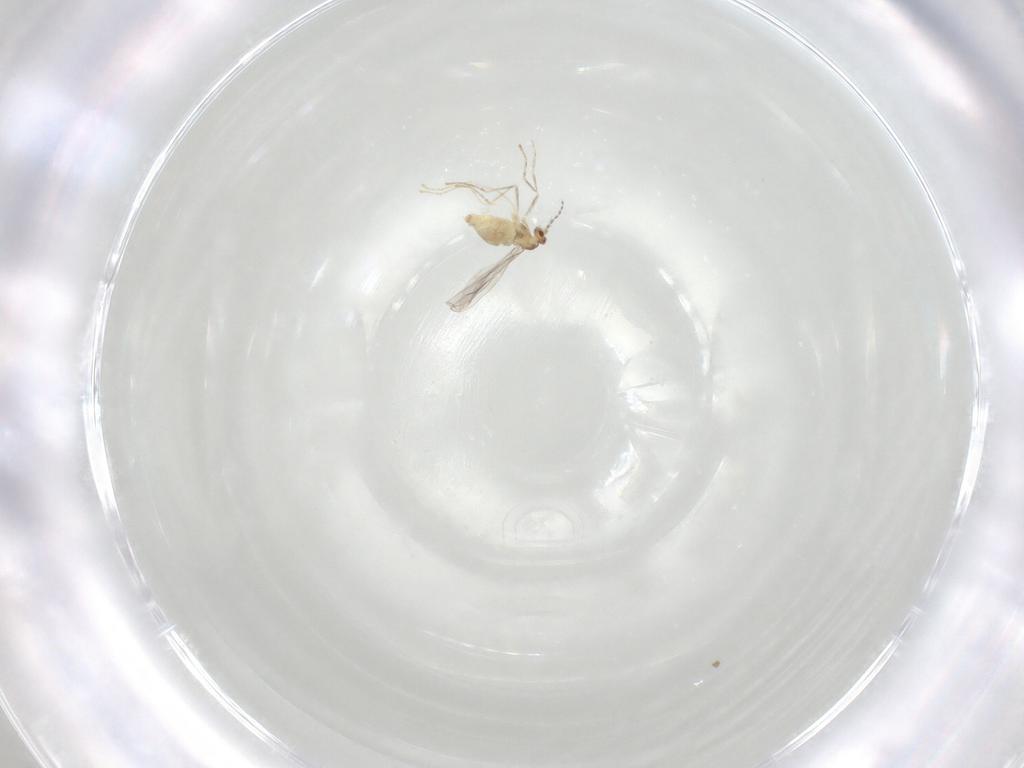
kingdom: Animalia
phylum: Arthropoda
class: Insecta
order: Diptera
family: Cecidomyiidae
